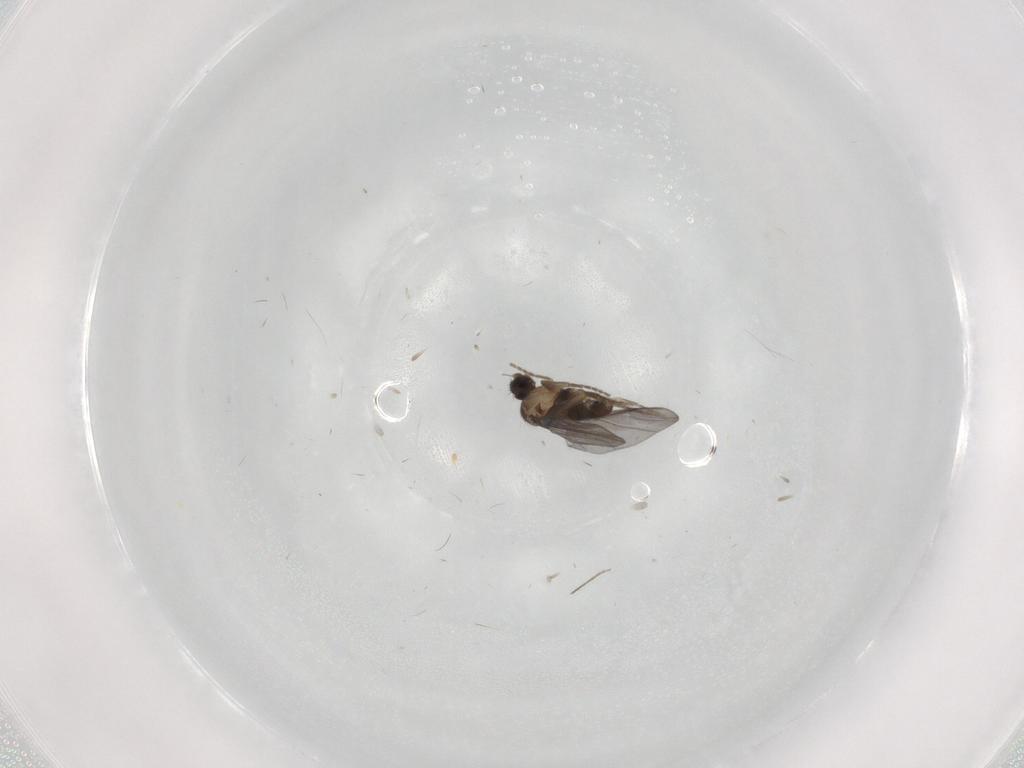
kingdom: Animalia
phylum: Arthropoda
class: Insecta
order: Diptera
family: Phoridae
